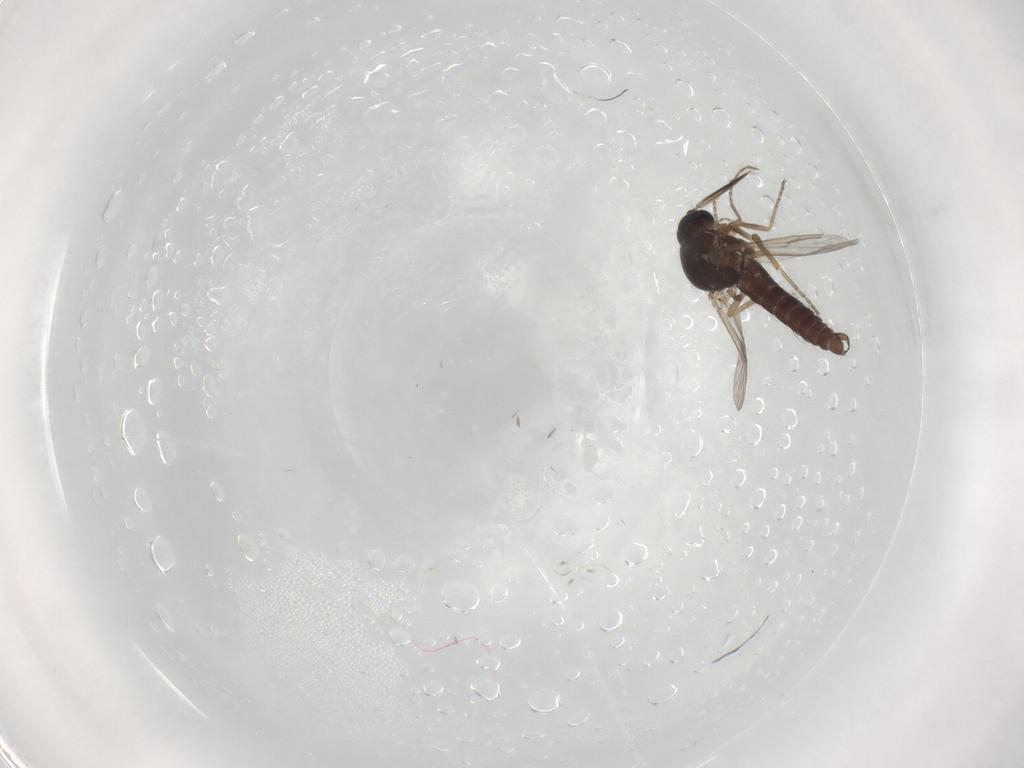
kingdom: Animalia
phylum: Arthropoda
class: Insecta
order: Diptera
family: Ceratopogonidae
